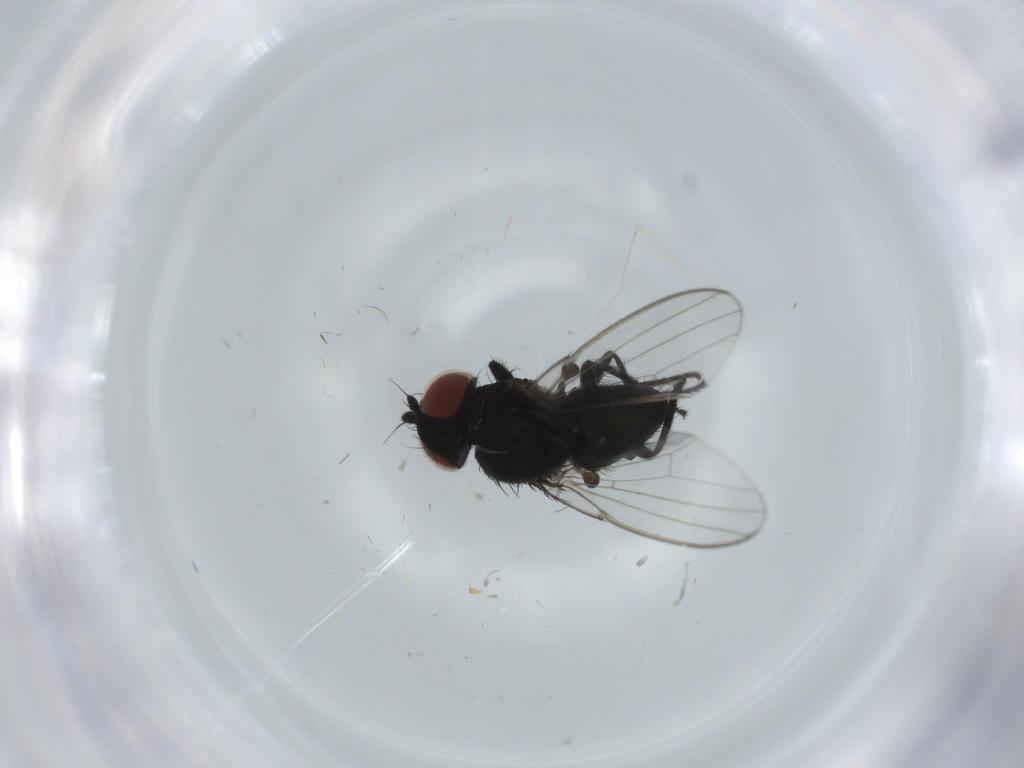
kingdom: Animalia
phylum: Arthropoda
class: Insecta
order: Diptera
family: Milichiidae
